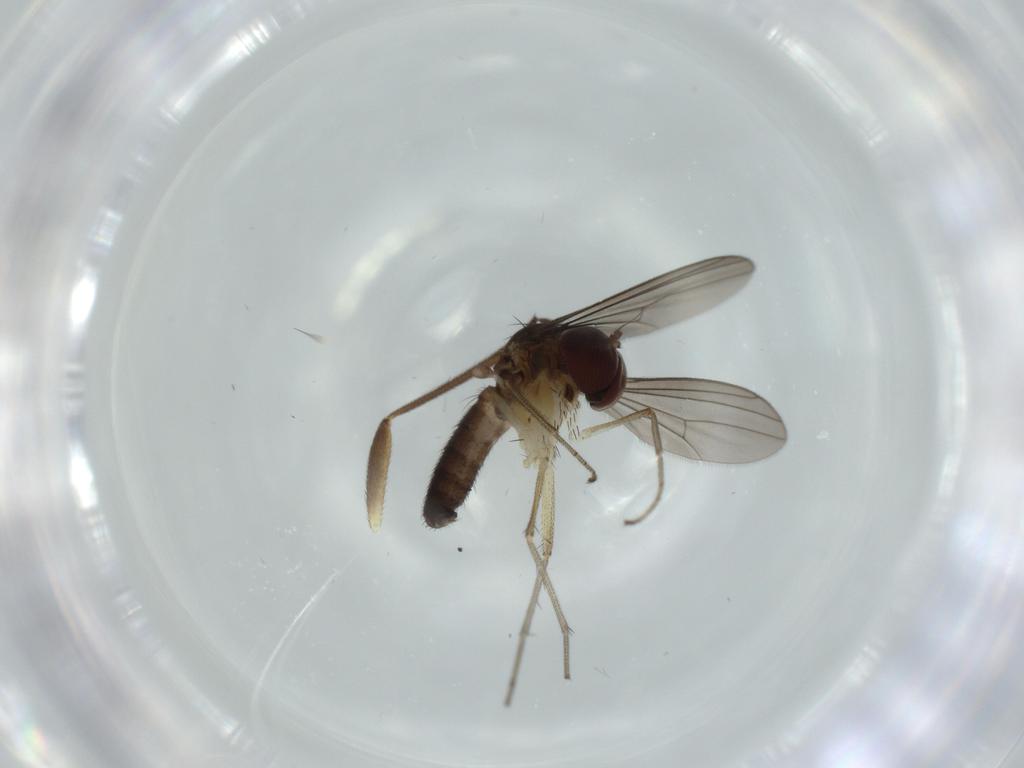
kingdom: Animalia
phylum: Arthropoda
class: Insecta
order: Diptera
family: Dolichopodidae
